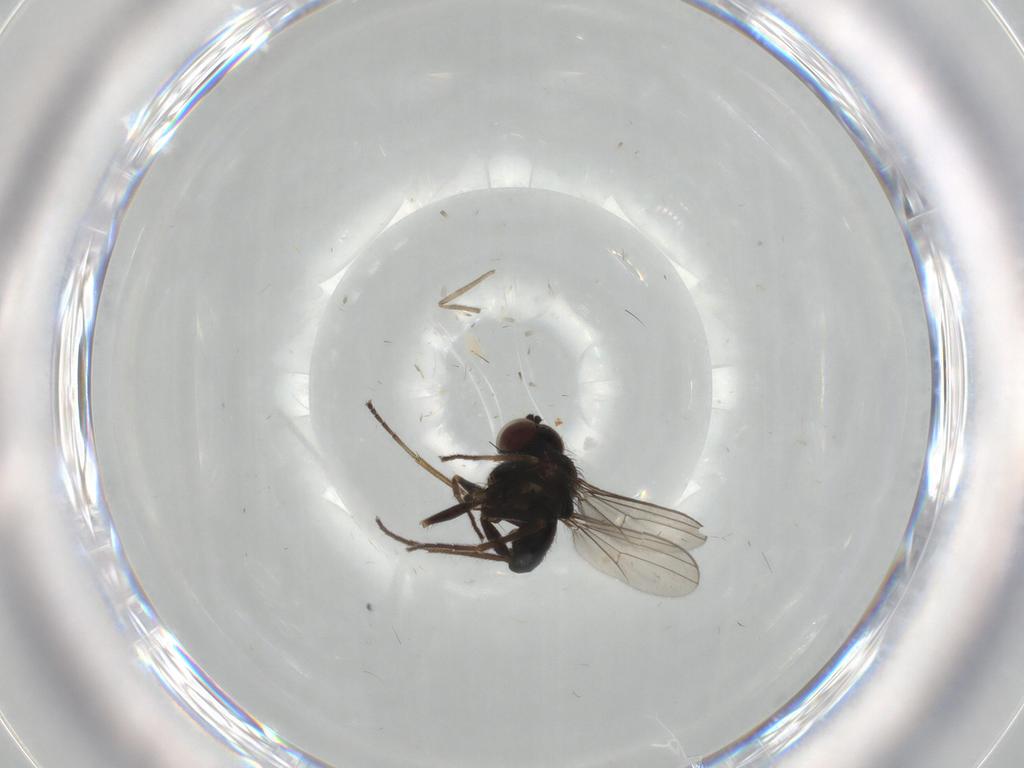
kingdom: Animalia
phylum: Arthropoda
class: Insecta
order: Diptera
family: Dolichopodidae
